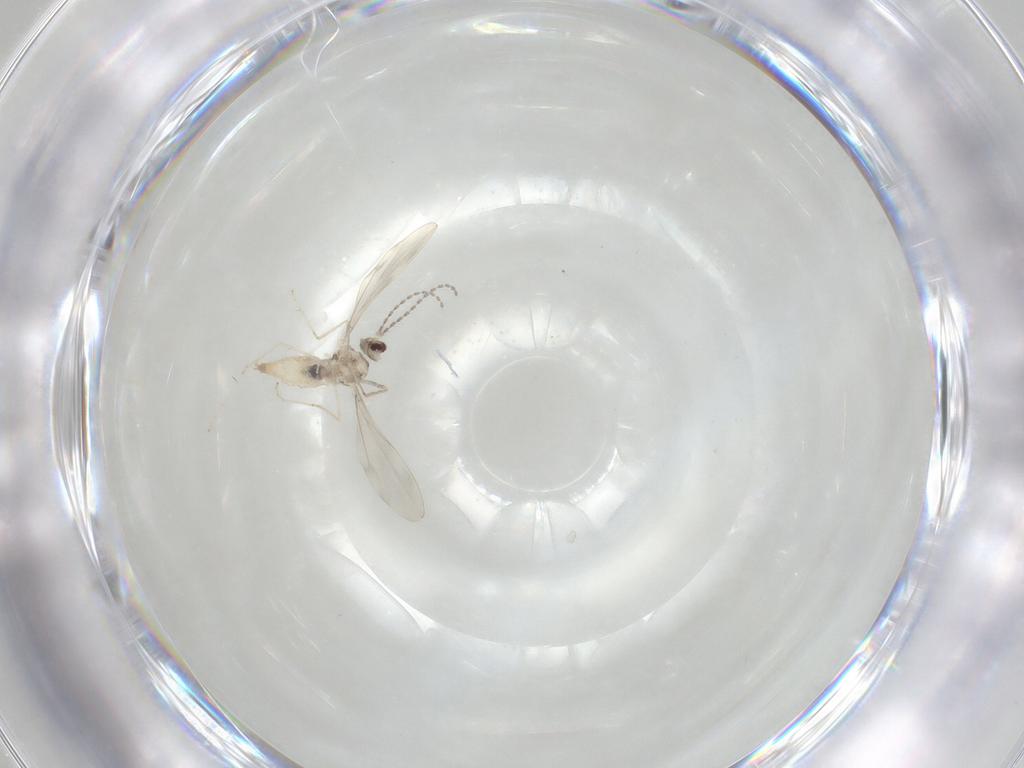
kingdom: Animalia
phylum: Arthropoda
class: Insecta
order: Diptera
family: Cecidomyiidae
